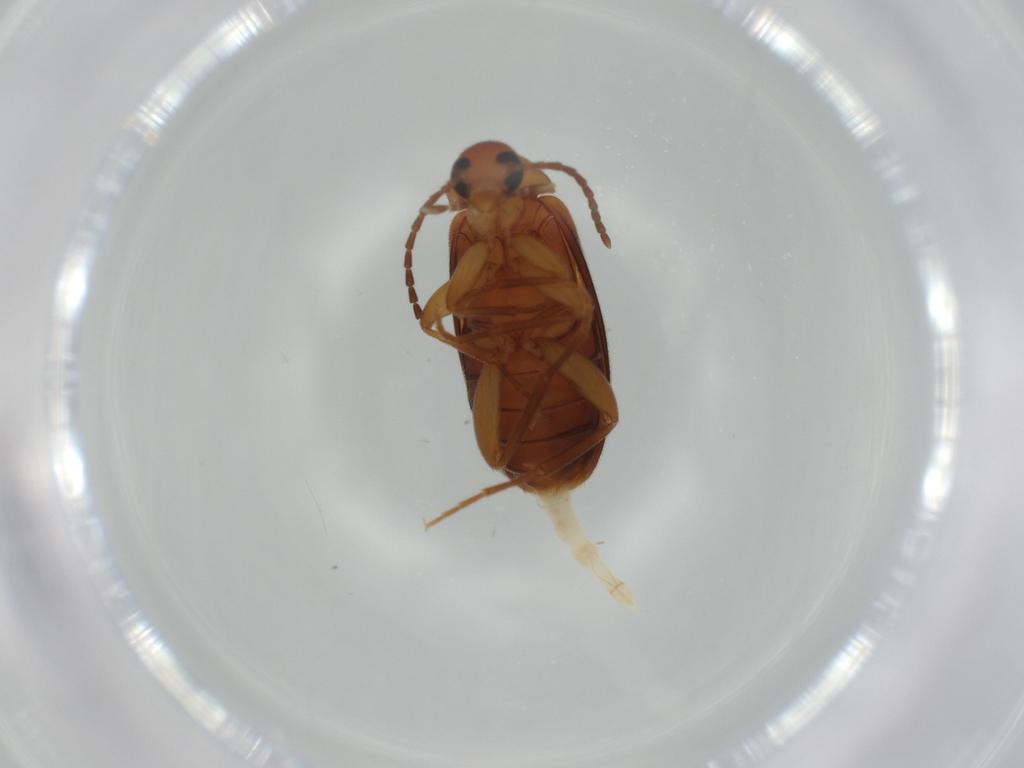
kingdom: Animalia
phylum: Arthropoda
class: Insecta
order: Coleoptera
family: Scraptiidae
